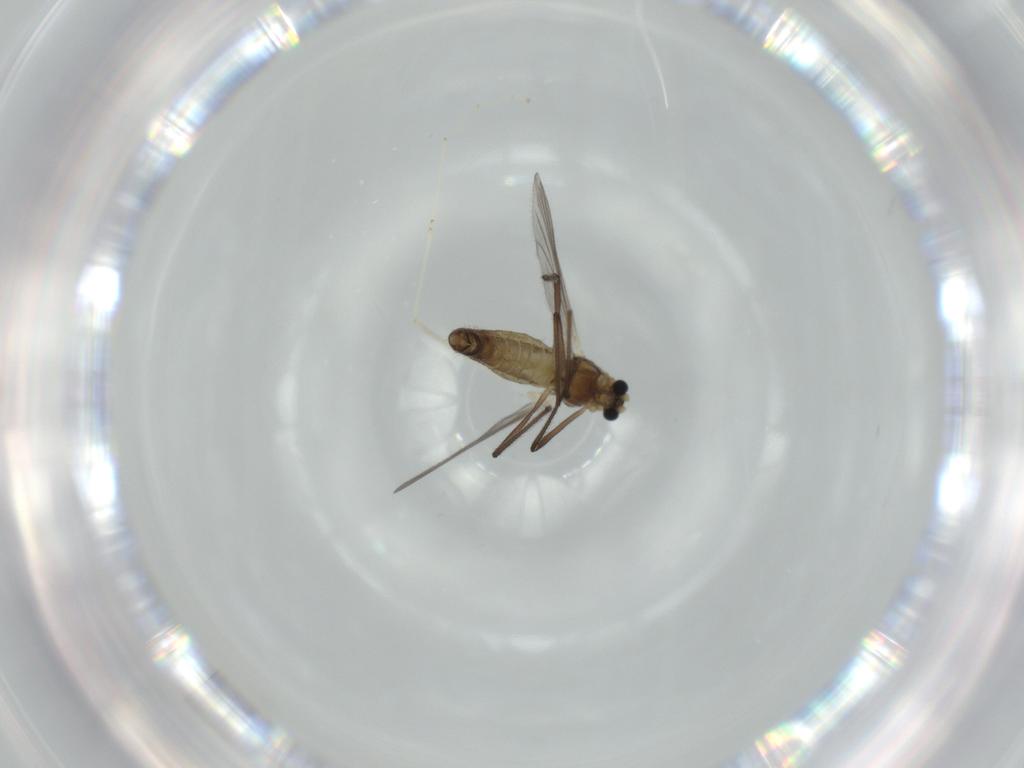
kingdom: Animalia
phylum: Arthropoda
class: Insecta
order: Diptera
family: Chironomidae
